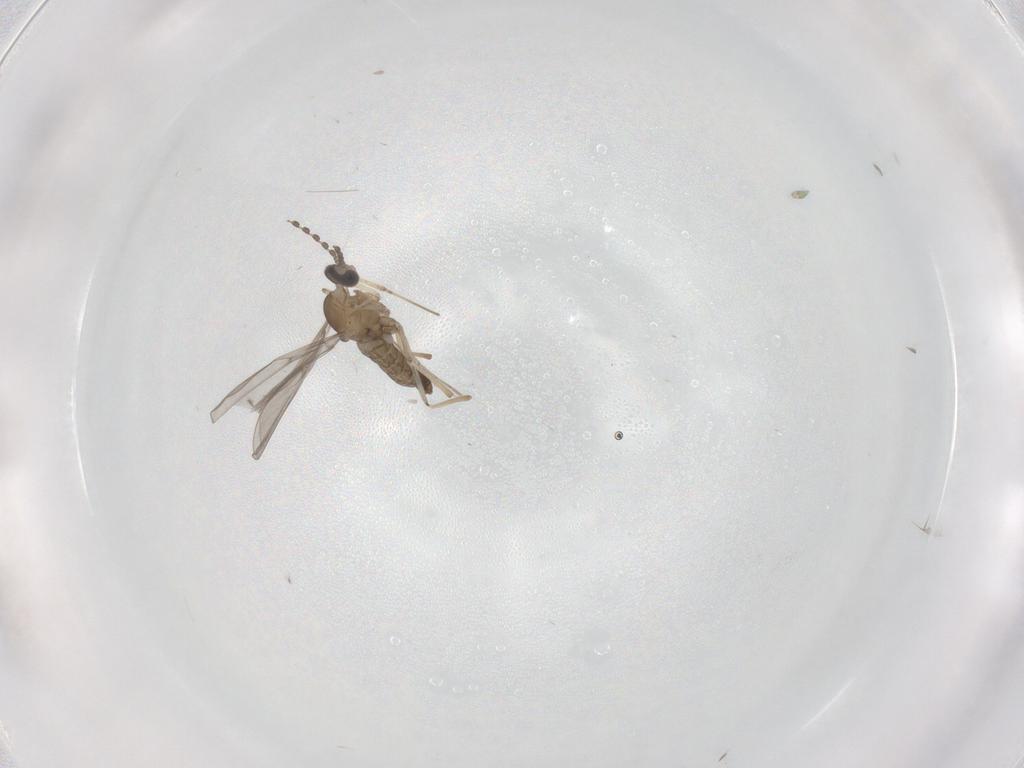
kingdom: Animalia
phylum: Arthropoda
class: Insecta
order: Diptera
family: Cecidomyiidae
